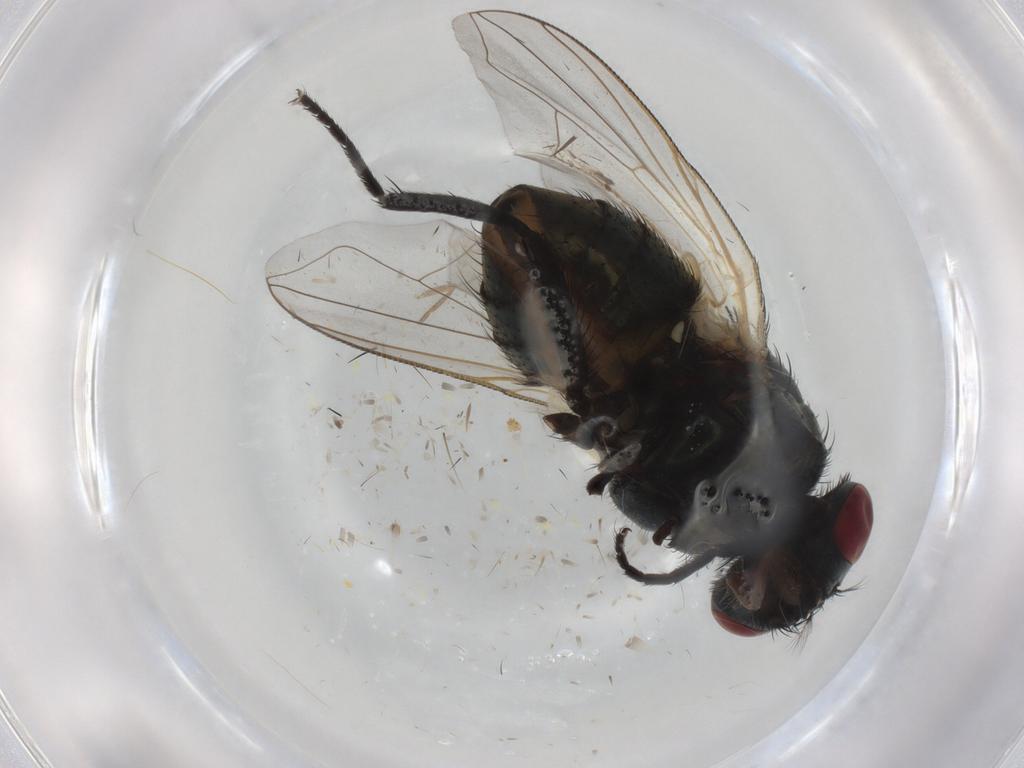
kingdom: Animalia
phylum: Arthropoda
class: Insecta
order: Diptera
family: Muscidae
